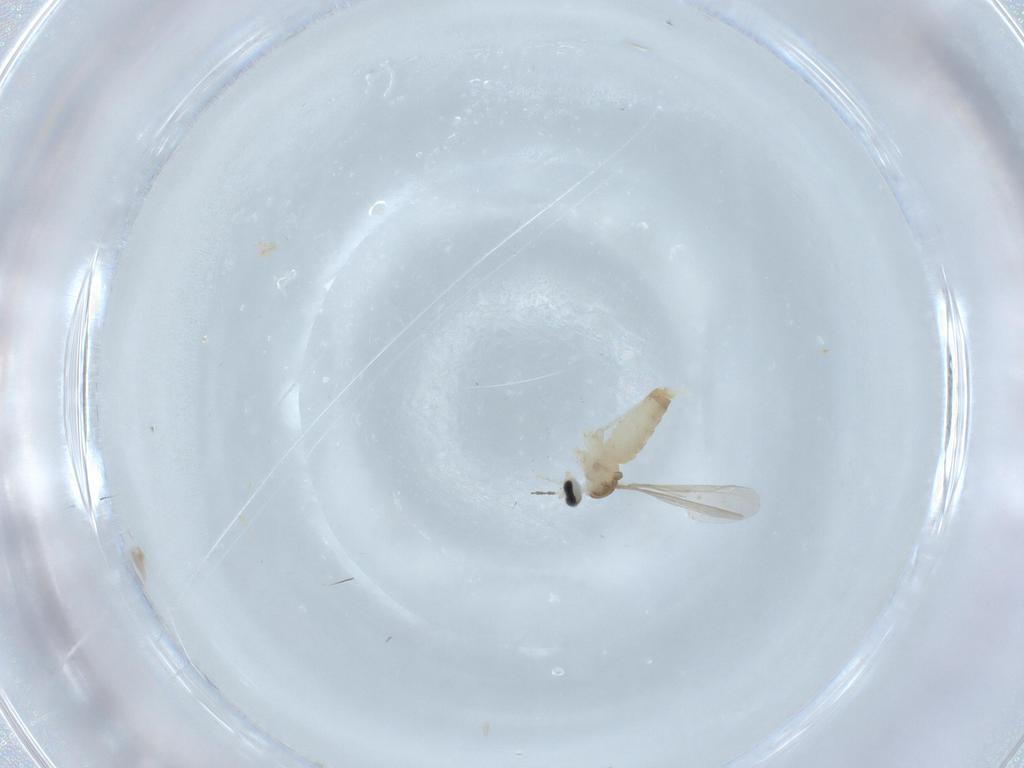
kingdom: Animalia
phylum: Arthropoda
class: Insecta
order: Diptera
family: Cecidomyiidae
